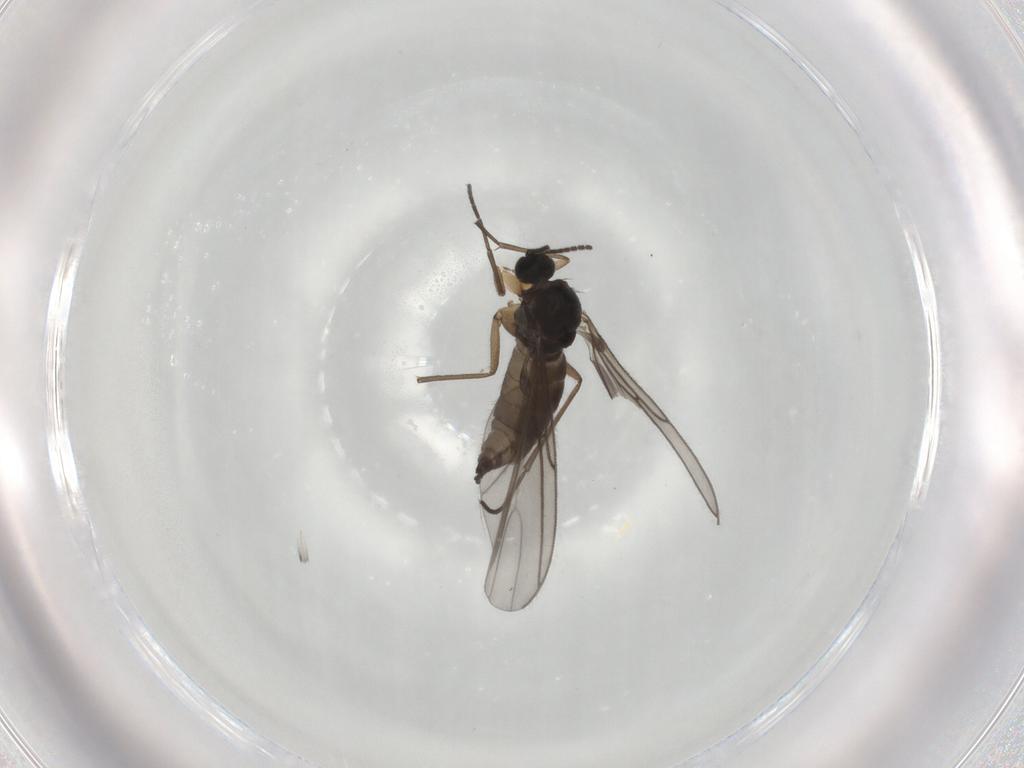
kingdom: Animalia
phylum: Arthropoda
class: Insecta
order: Diptera
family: Sciaridae
